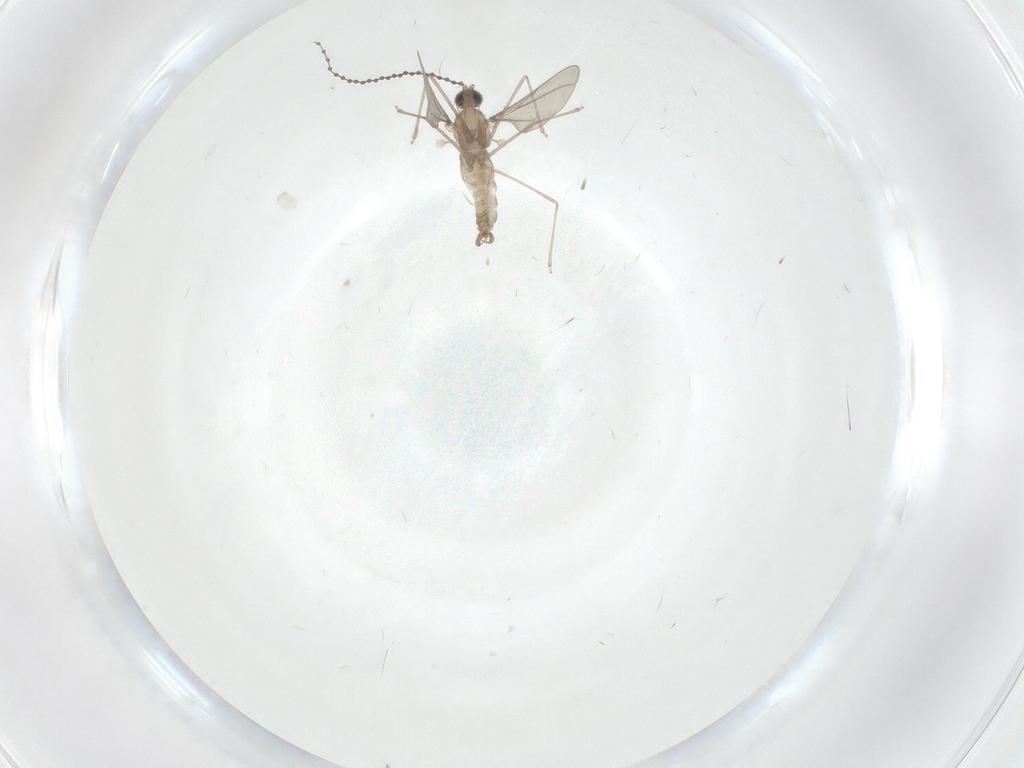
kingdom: Animalia
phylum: Arthropoda
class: Insecta
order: Diptera
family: Cecidomyiidae
